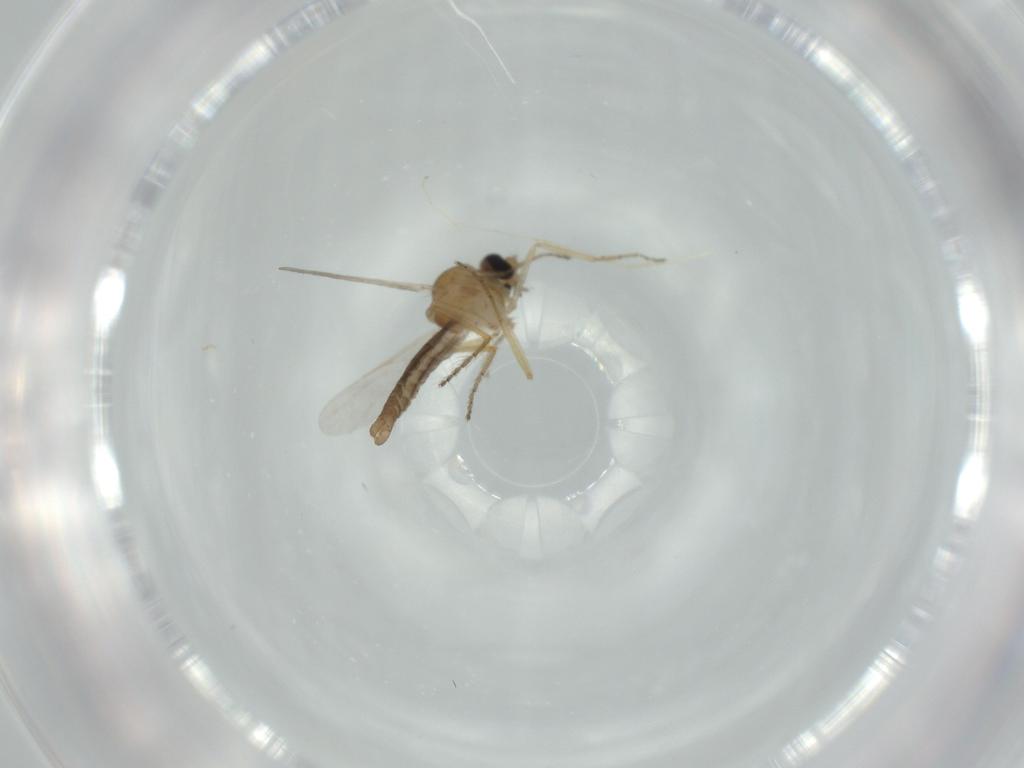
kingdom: Animalia
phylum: Arthropoda
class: Insecta
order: Diptera
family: Ceratopogonidae
